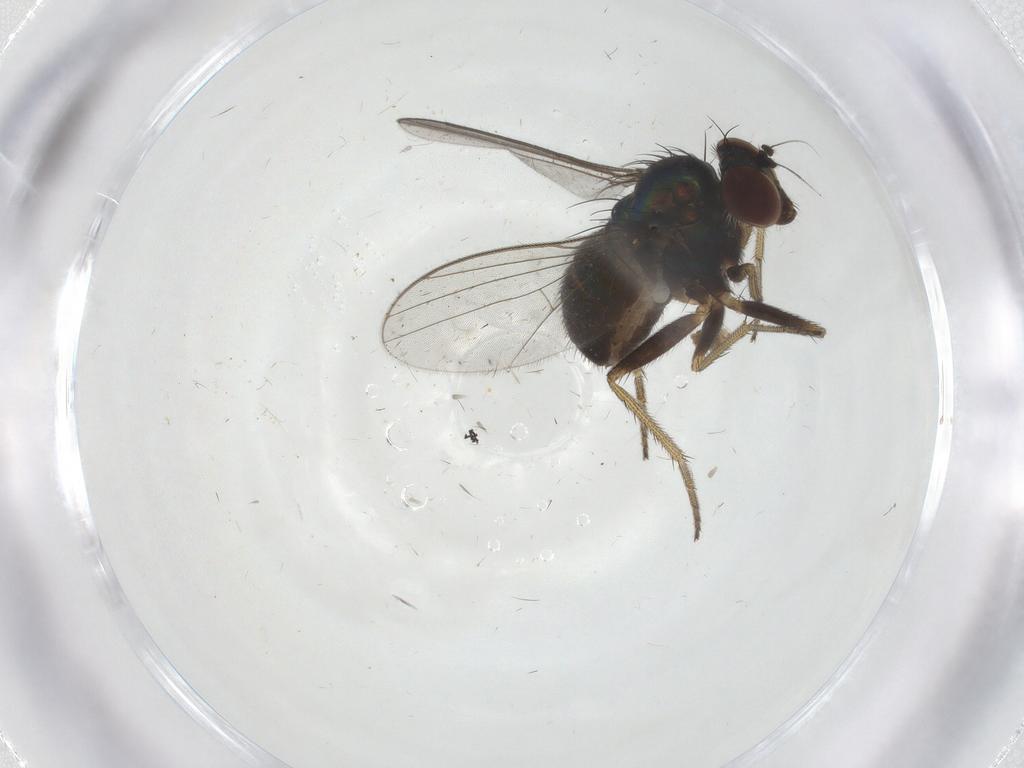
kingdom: Animalia
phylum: Arthropoda
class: Insecta
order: Diptera
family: Dolichopodidae
